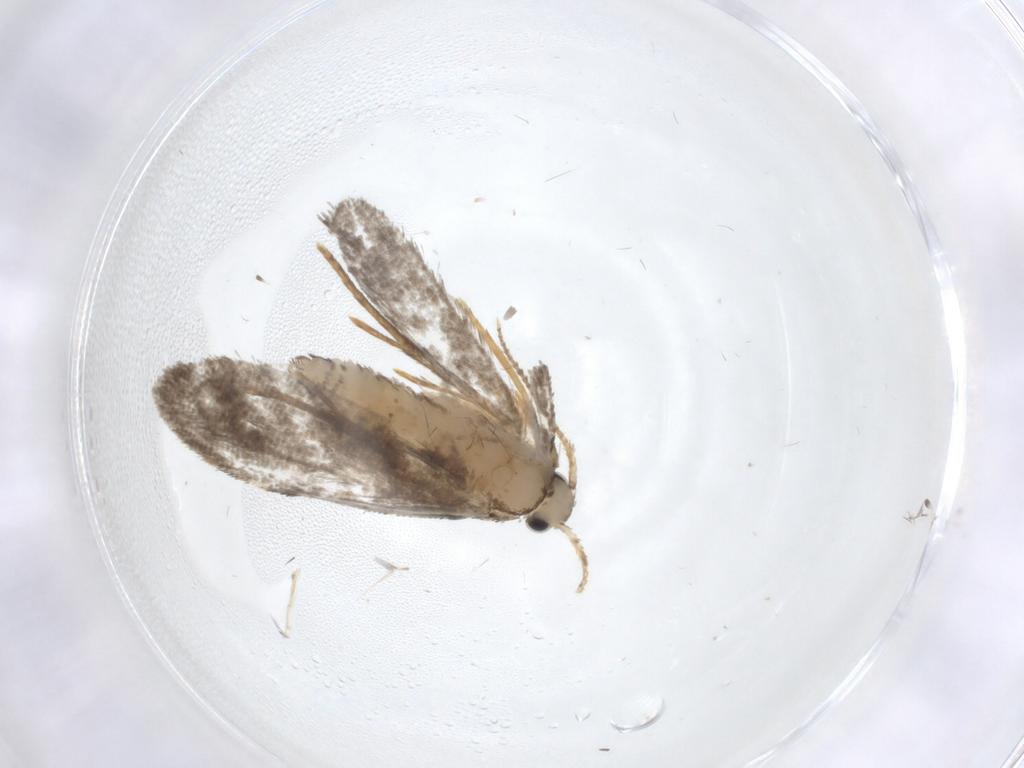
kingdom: Animalia
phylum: Arthropoda
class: Insecta
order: Lepidoptera
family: Psychidae
